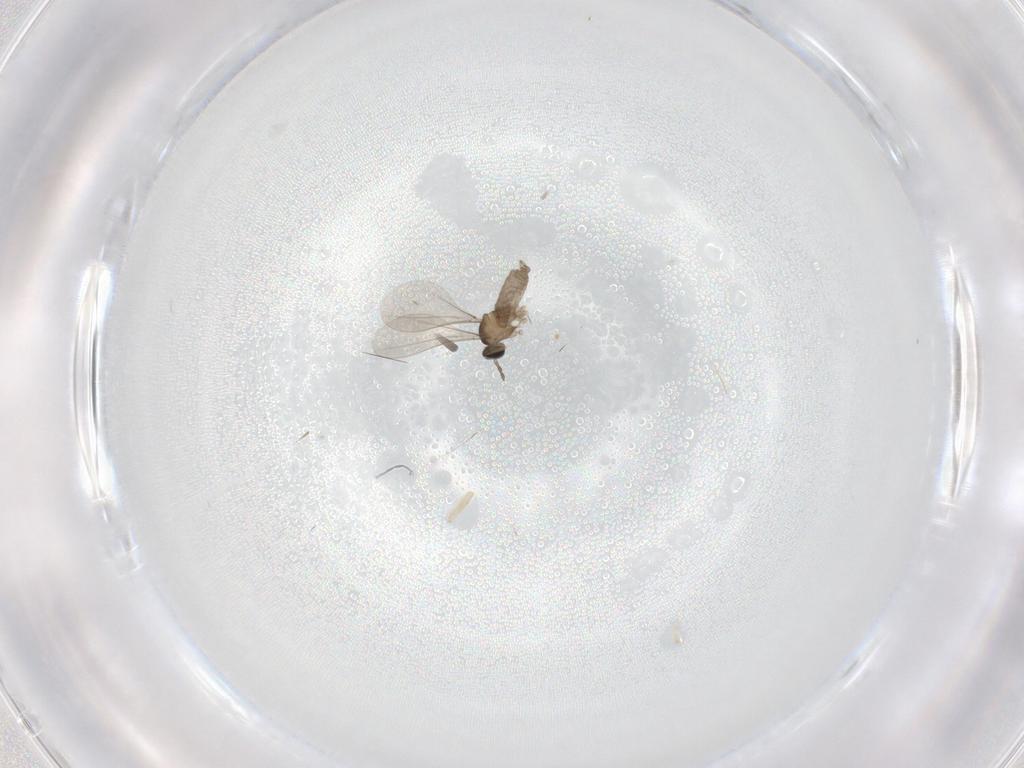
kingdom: Animalia
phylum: Arthropoda
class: Insecta
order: Diptera
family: Cecidomyiidae
